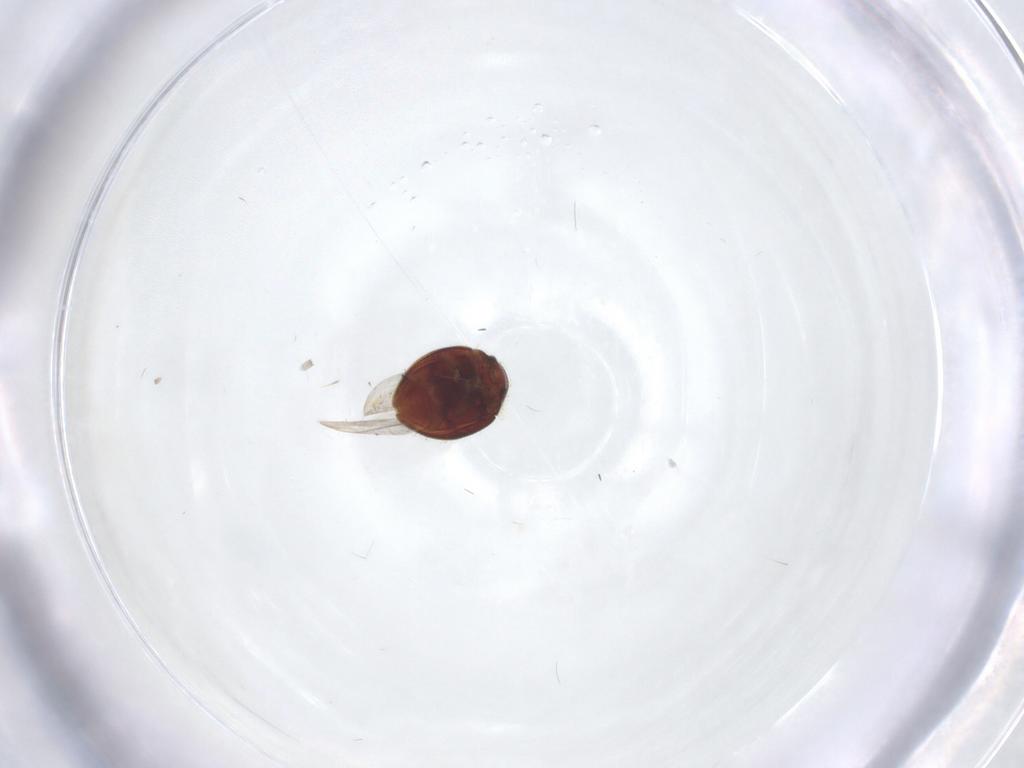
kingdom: Animalia
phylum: Arthropoda
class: Insecta
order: Coleoptera
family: Coccinellidae
